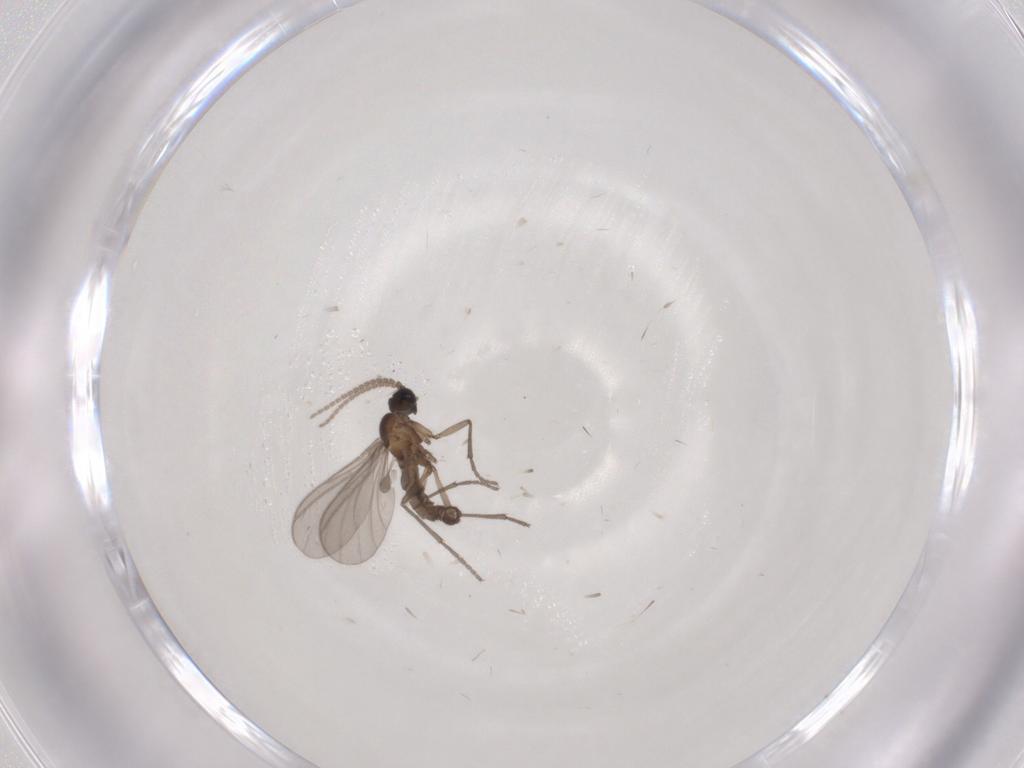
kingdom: Animalia
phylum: Arthropoda
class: Insecta
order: Diptera
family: Sciaridae
